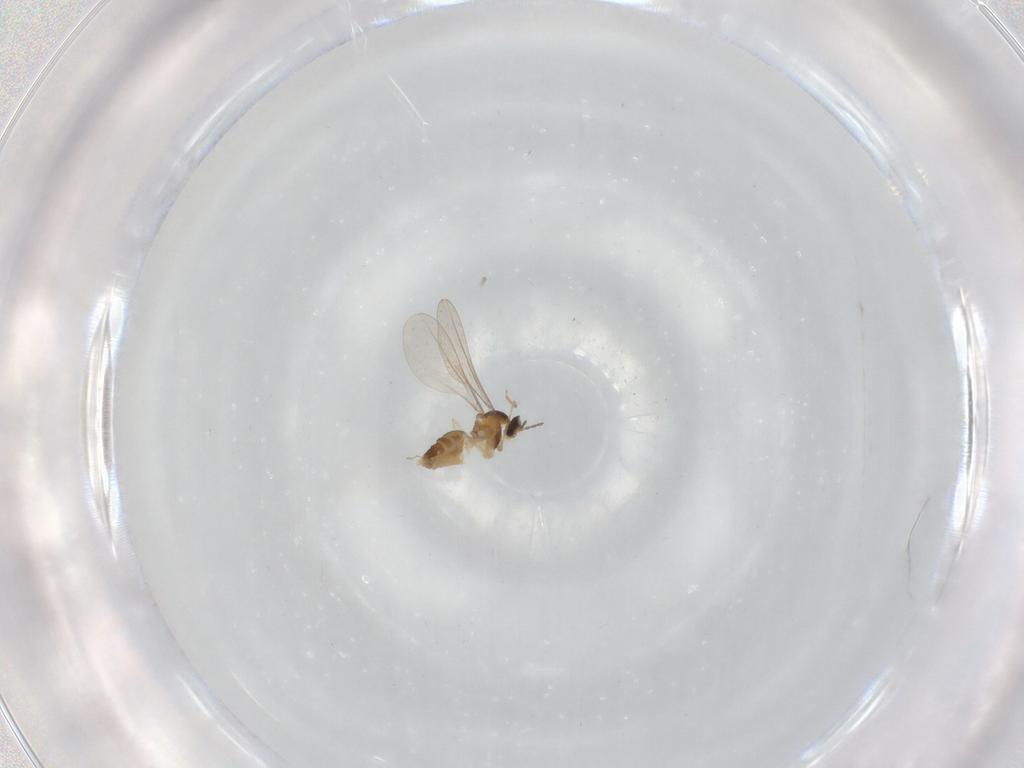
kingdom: Animalia
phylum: Arthropoda
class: Insecta
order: Diptera
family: Cecidomyiidae
